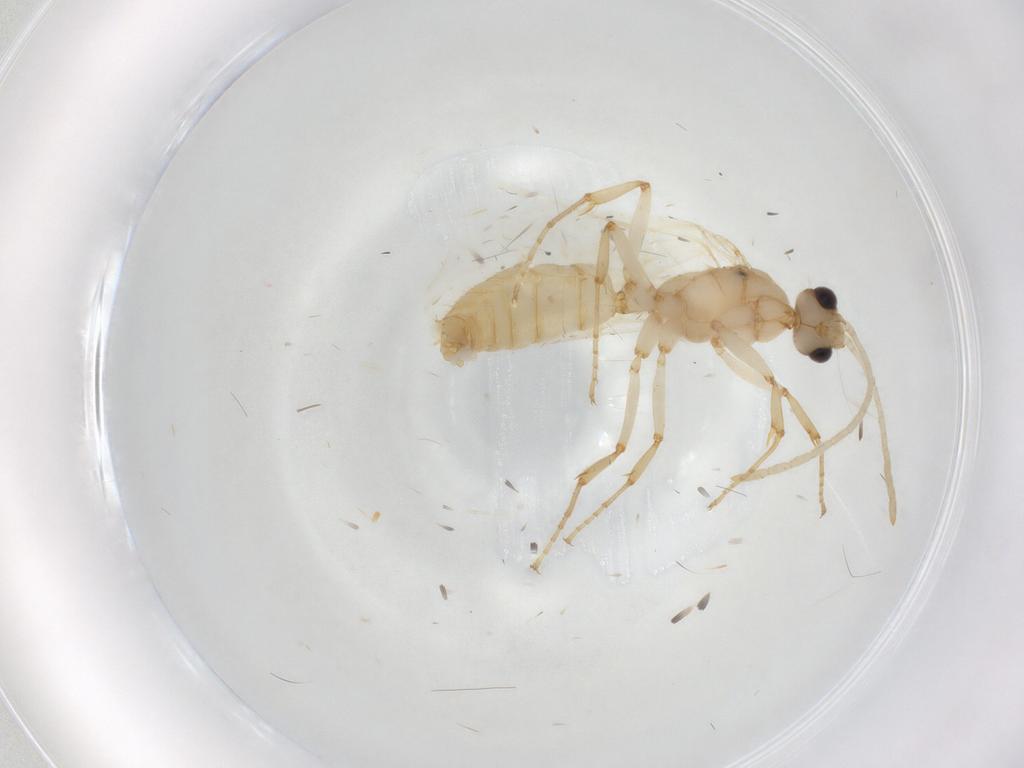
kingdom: Animalia
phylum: Arthropoda
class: Insecta
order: Hymenoptera
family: Formicidae
